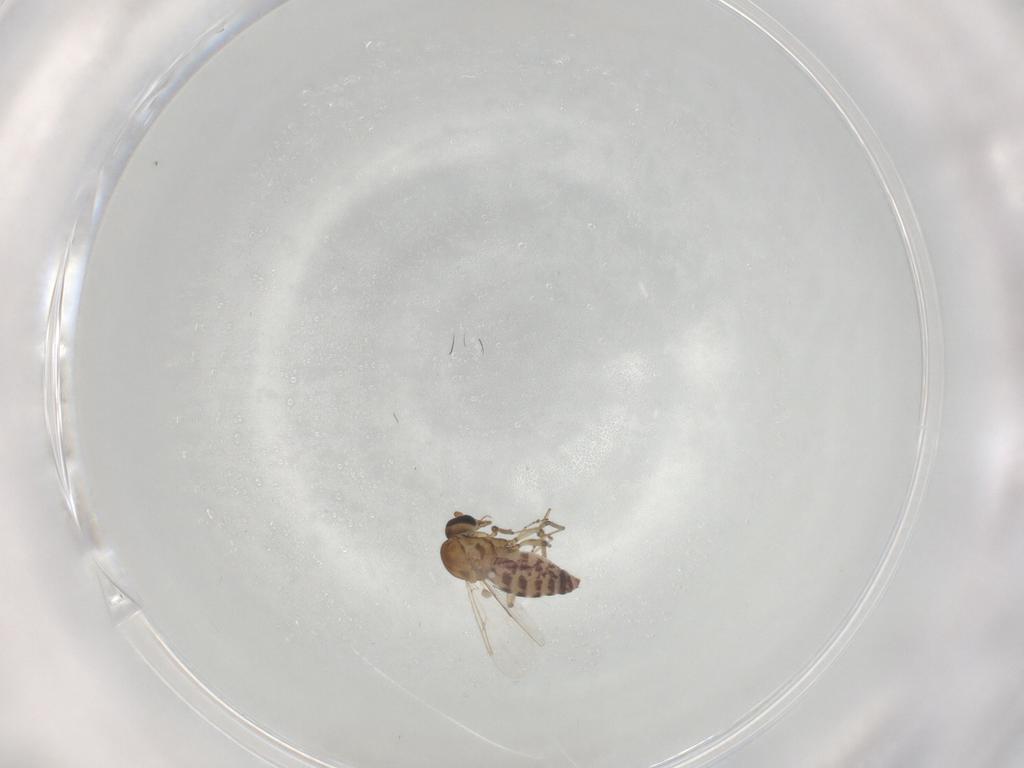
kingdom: Animalia
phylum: Arthropoda
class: Insecta
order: Diptera
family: Ceratopogonidae
